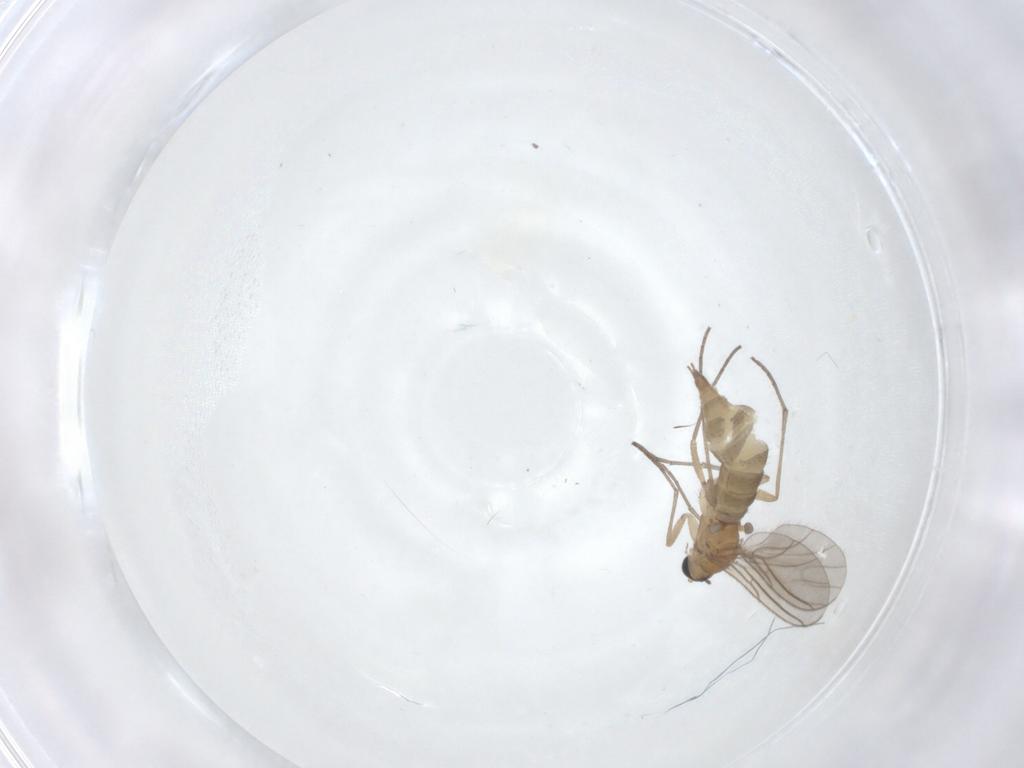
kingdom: Animalia
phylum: Arthropoda
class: Insecta
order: Diptera
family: Sciaridae
